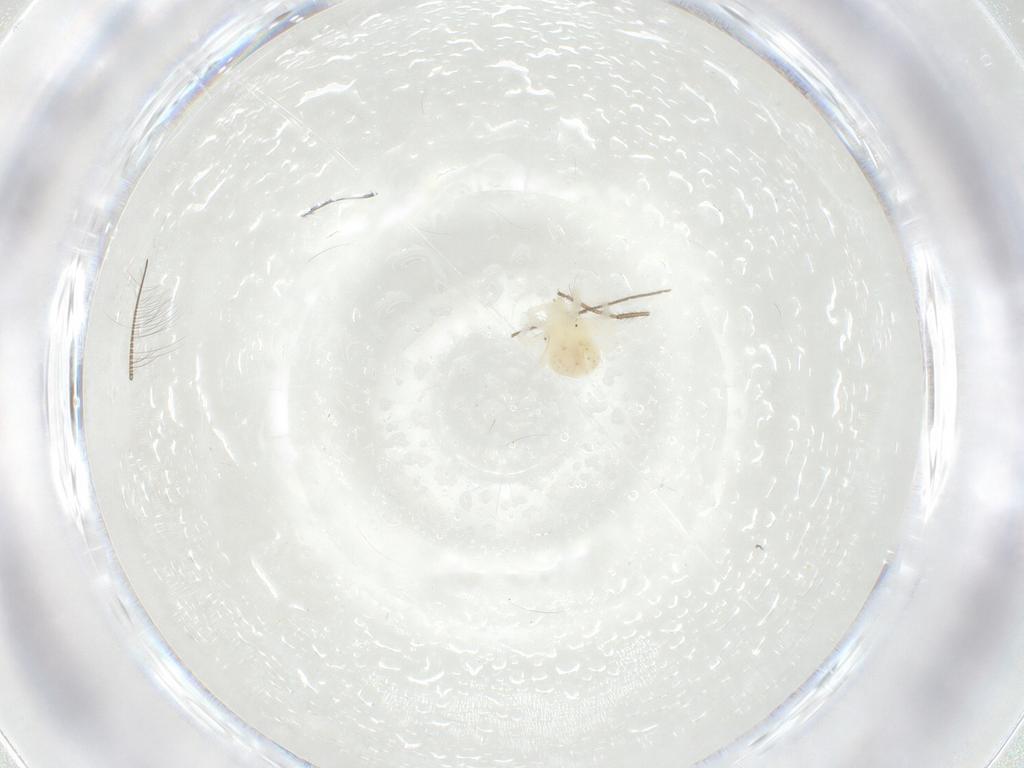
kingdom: Animalia
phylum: Arthropoda
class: Arachnida
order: Trombidiformes
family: Anystidae
